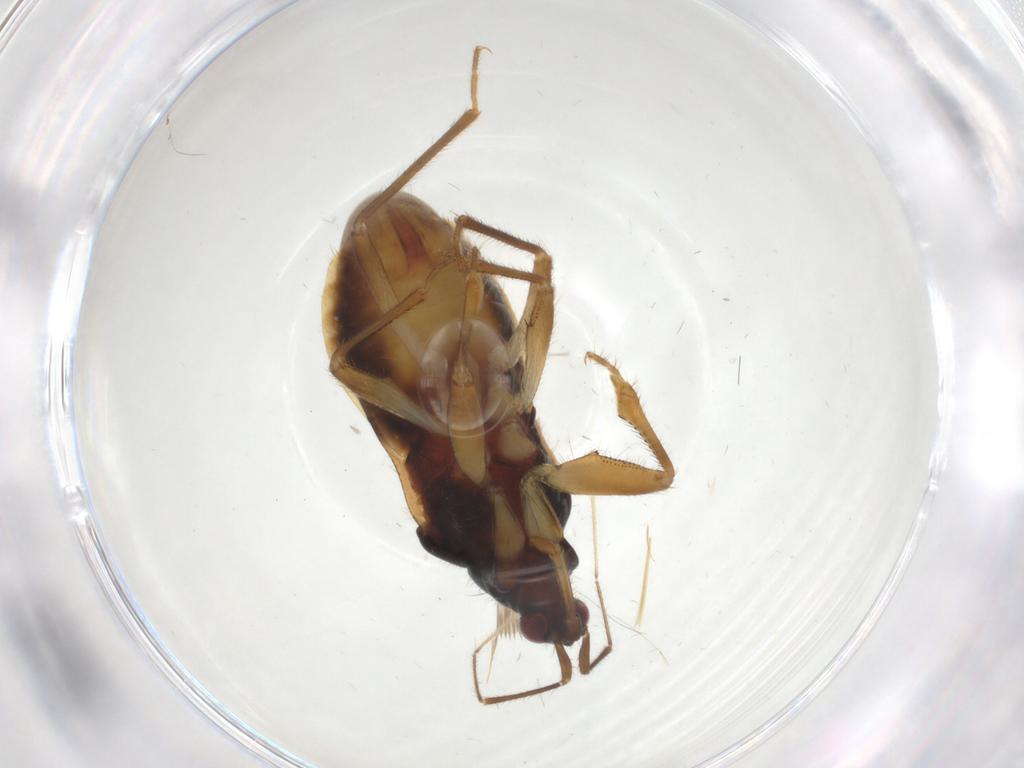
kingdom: Animalia
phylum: Arthropoda
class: Insecta
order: Hemiptera
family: Nabidae
